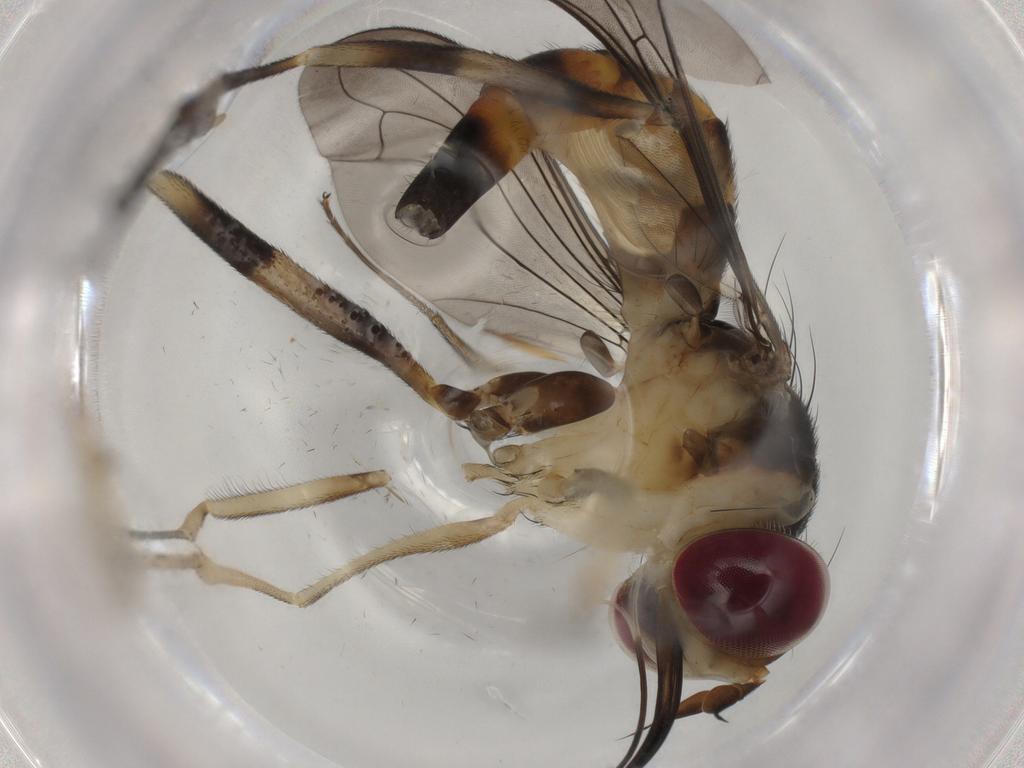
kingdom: Animalia
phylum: Arthropoda
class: Insecta
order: Diptera
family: Conopidae
